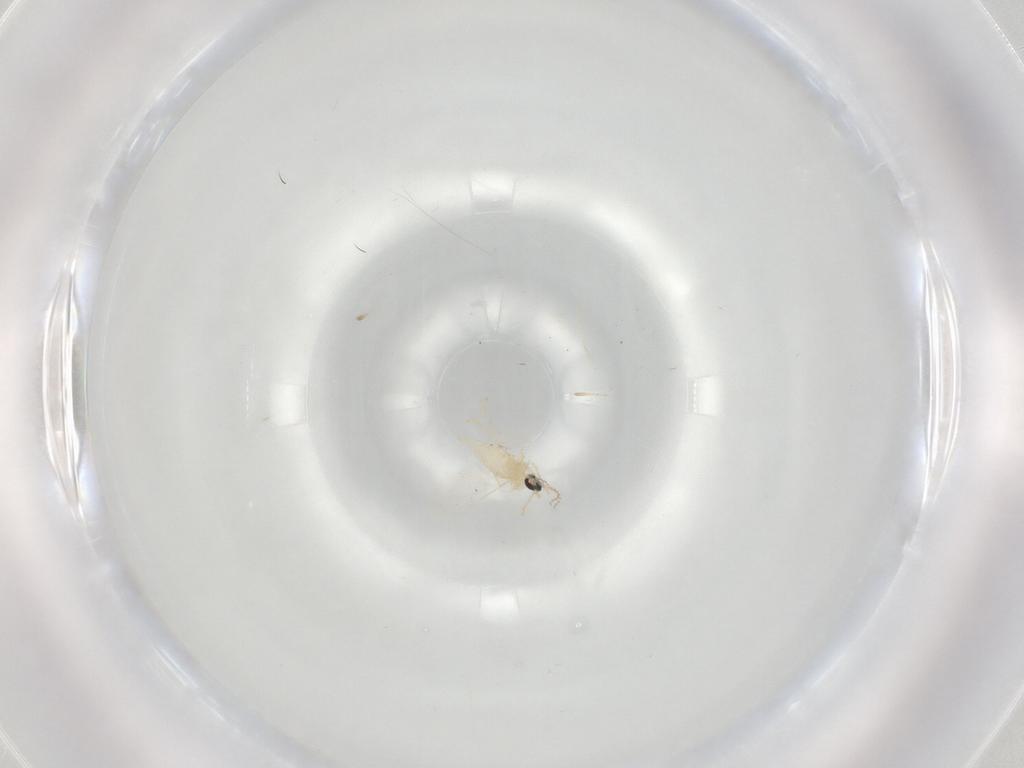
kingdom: Animalia
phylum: Arthropoda
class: Insecta
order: Diptera
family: Cecidomyiidae
